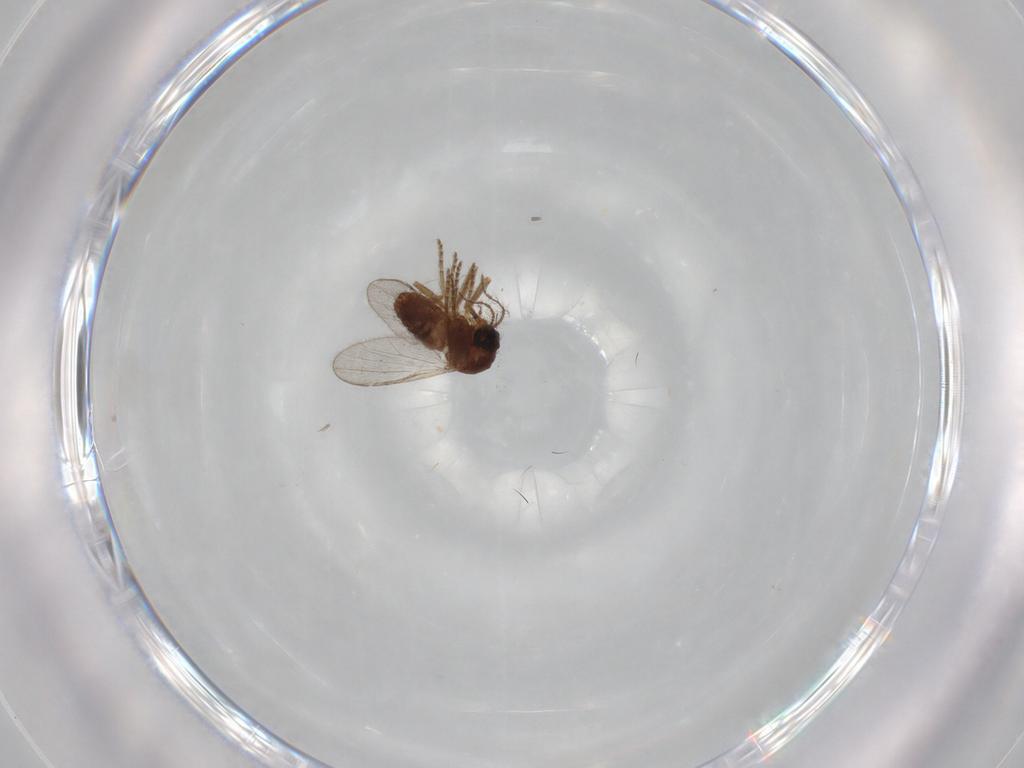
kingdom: Animalia
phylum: Arthropoda
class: Insecta
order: Diptera
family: Ceratopogonidae
